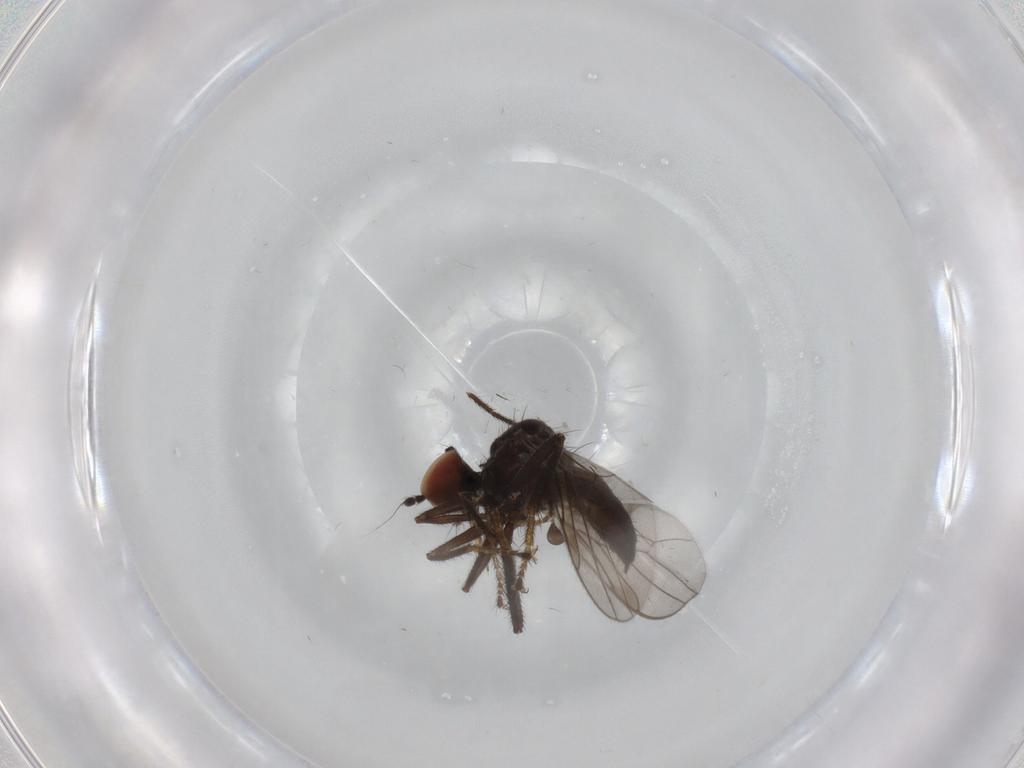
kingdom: Animalia
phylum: Arthropoda
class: Insecta
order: Diptera
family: Hybotidae
